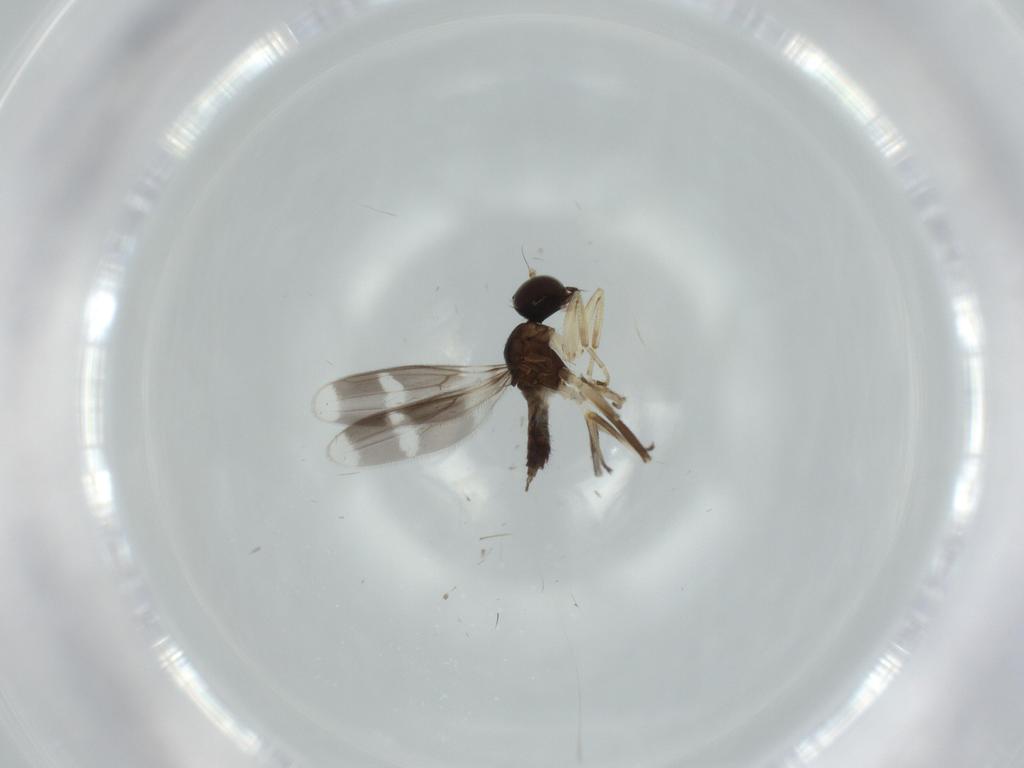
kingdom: Animalia
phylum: Arthropoda
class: Insecta
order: Diptera
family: Hybotidae
